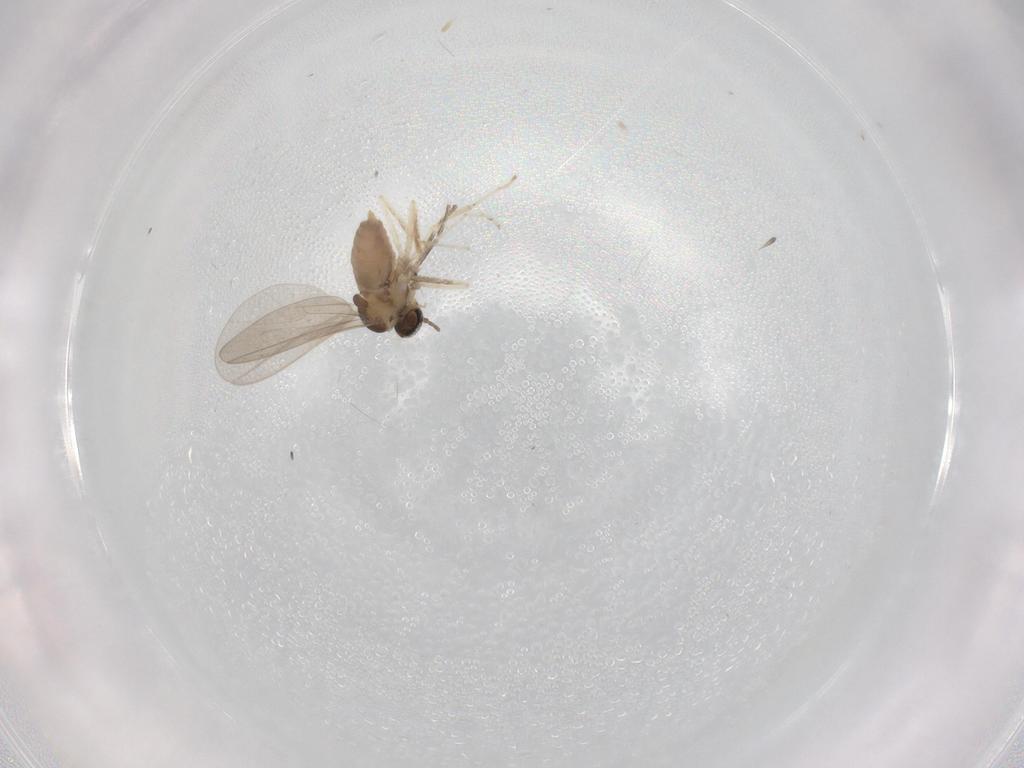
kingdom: Animalia
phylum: Arthropoda
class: Insecta
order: Diptera
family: Cecidomyiidae
